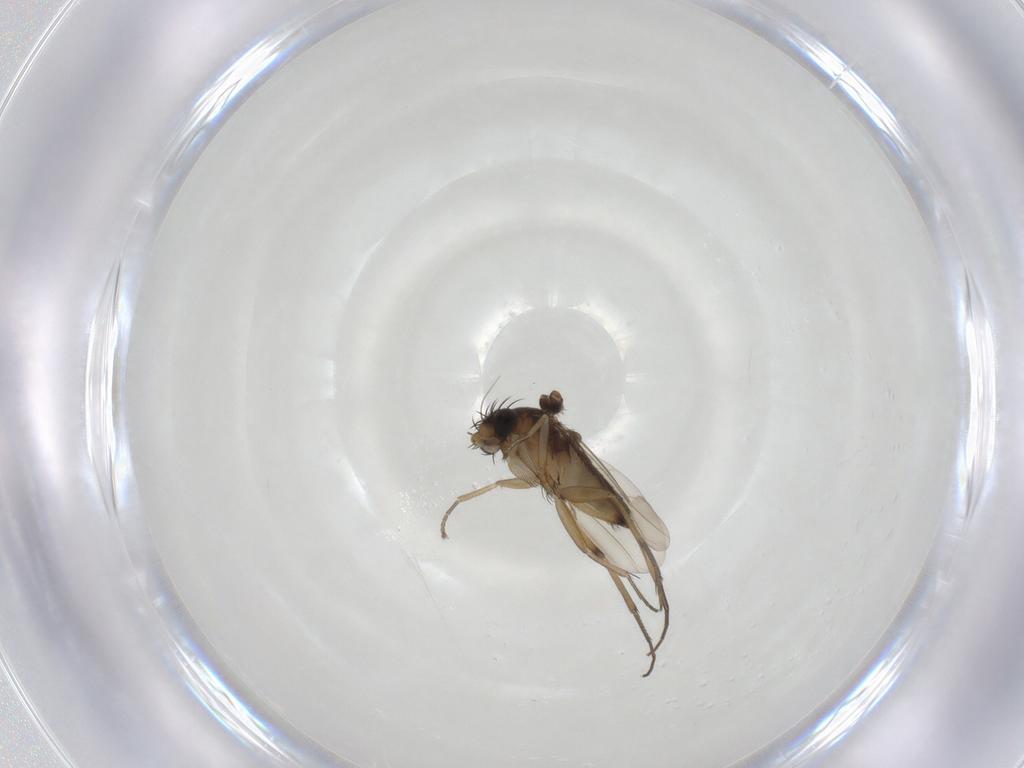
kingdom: Animalia
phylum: Arthropoda
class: Insecta
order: Diptera
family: Phoridae
